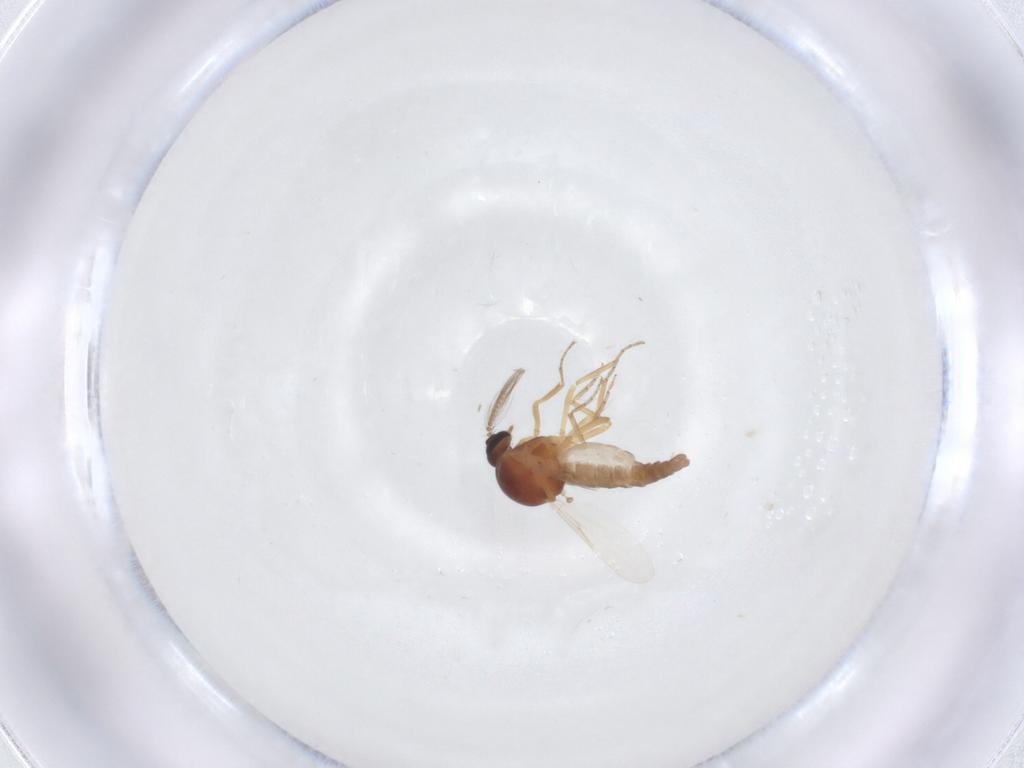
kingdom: Animalia
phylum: Arthropoda
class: Insecta
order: Diptera
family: Ceratopogonidae
